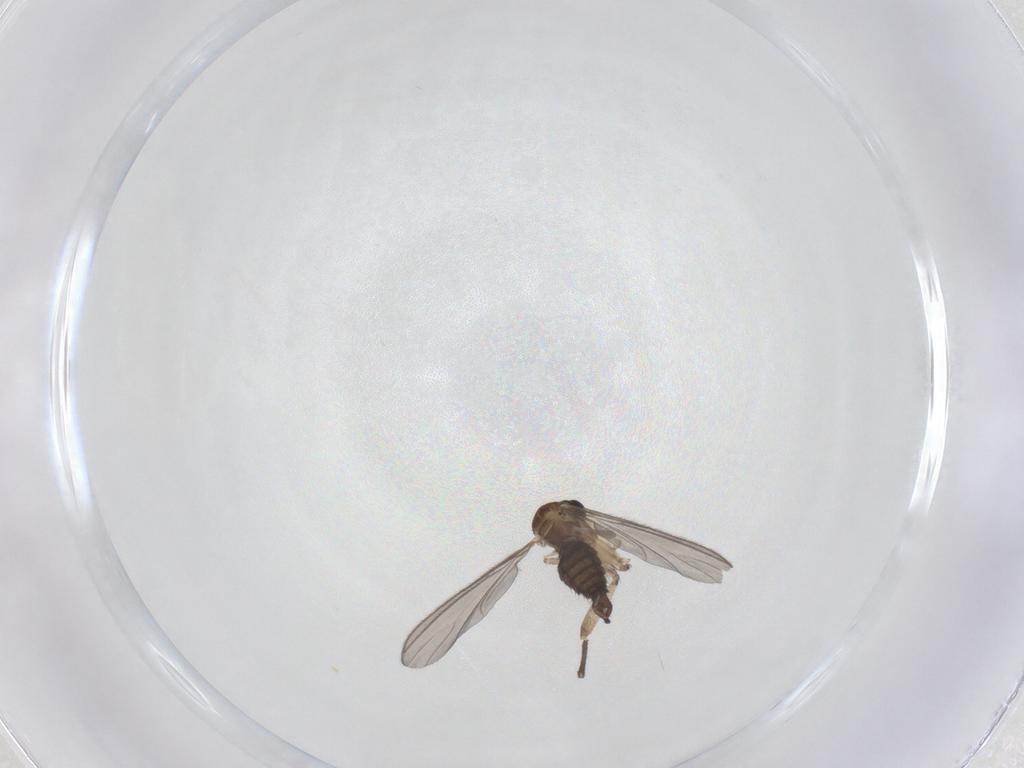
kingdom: Animalia
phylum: Arthropoda
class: Insecta
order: Diptera
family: Sciaridae
